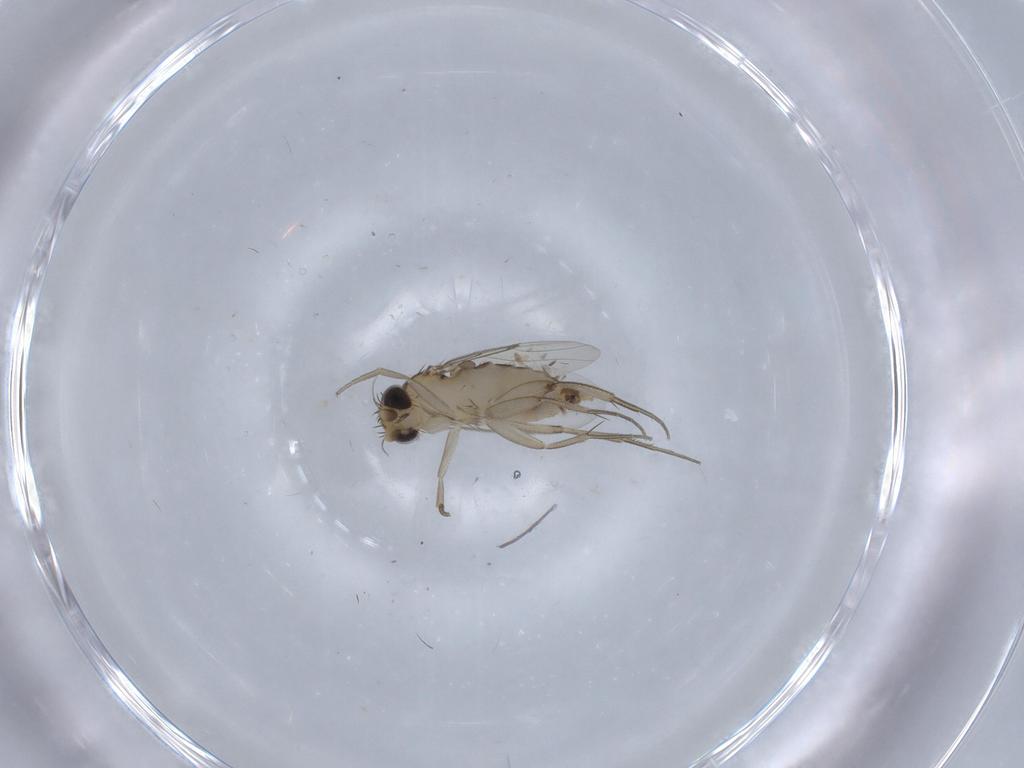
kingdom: Animalia
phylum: Arthropoda
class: Insecta
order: Diptera
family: Phoridae
